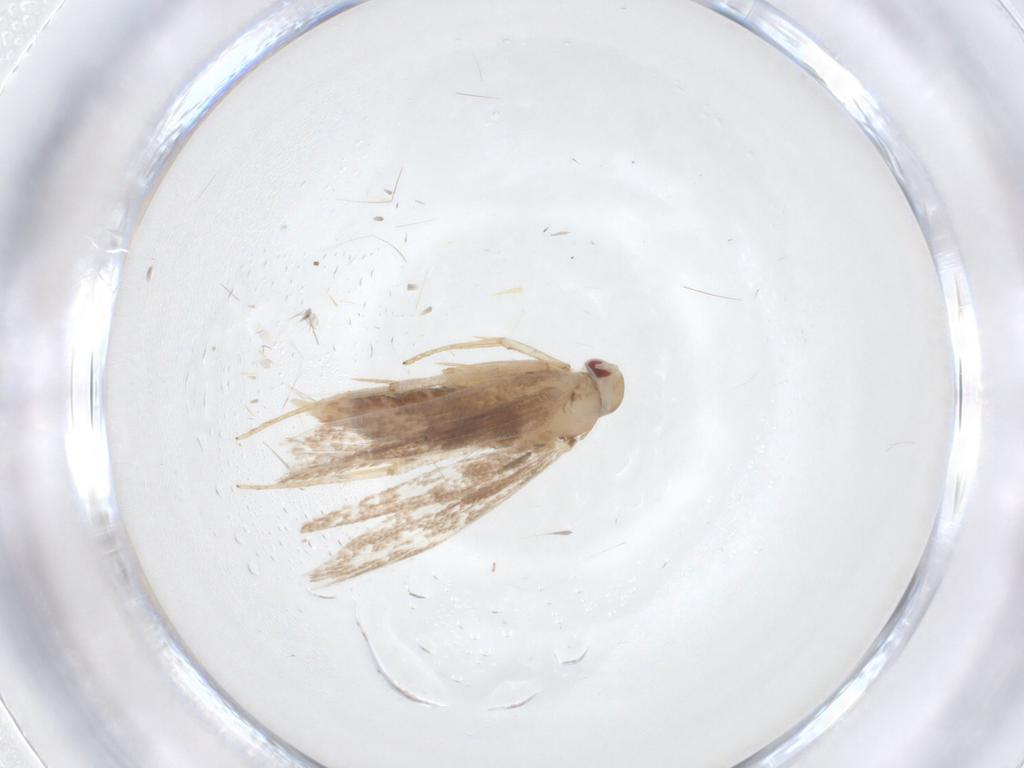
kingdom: Animalia
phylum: Arthropoda
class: Insecta
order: Lepidoptera
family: Cosmopterigidae
